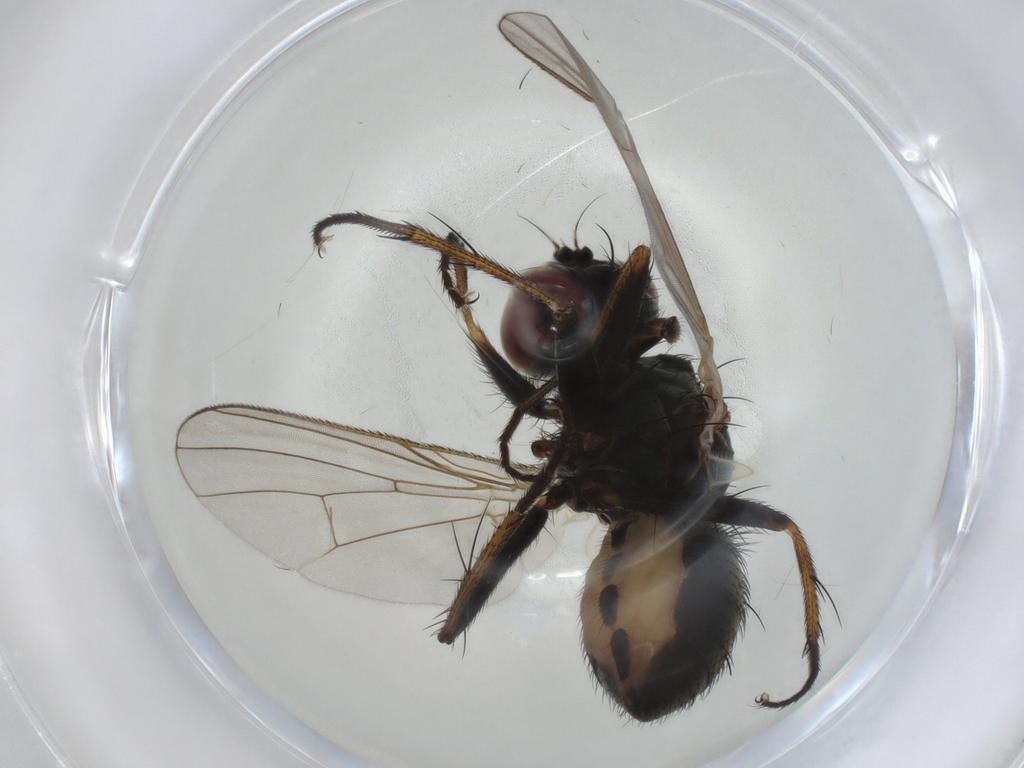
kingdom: Animalia
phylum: Arthropoda
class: Insecta
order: Diptera
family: Muscidae
